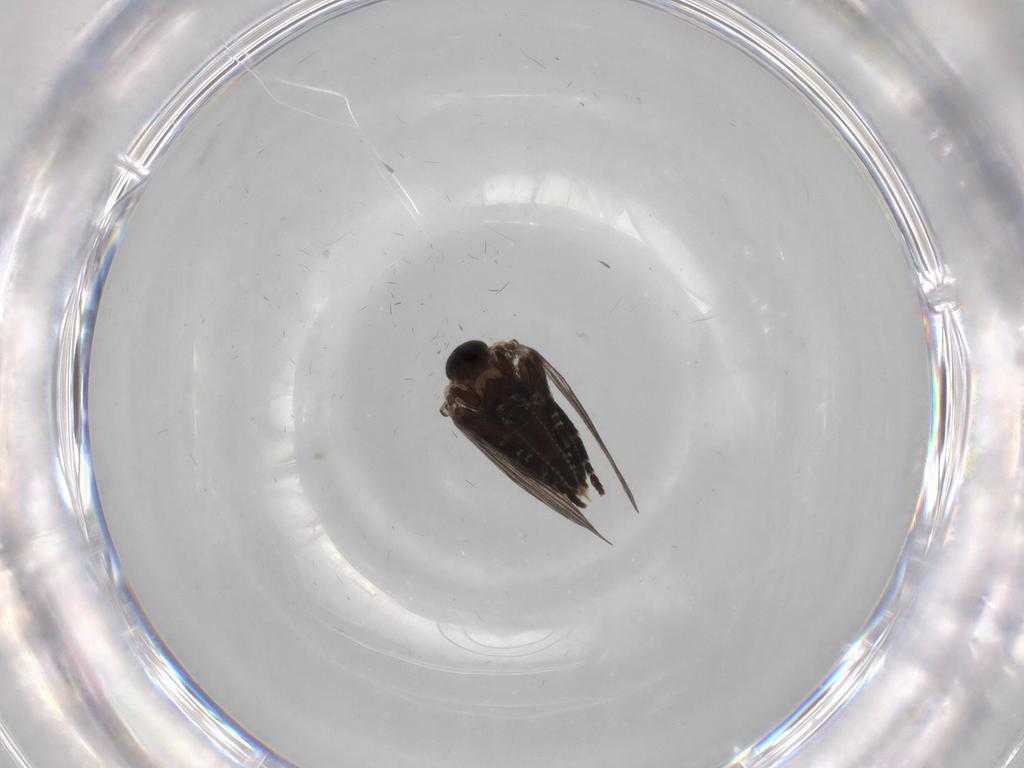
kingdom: Animalia
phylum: Arthropoda
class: Insecta
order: Diptera
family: Psychodidae
